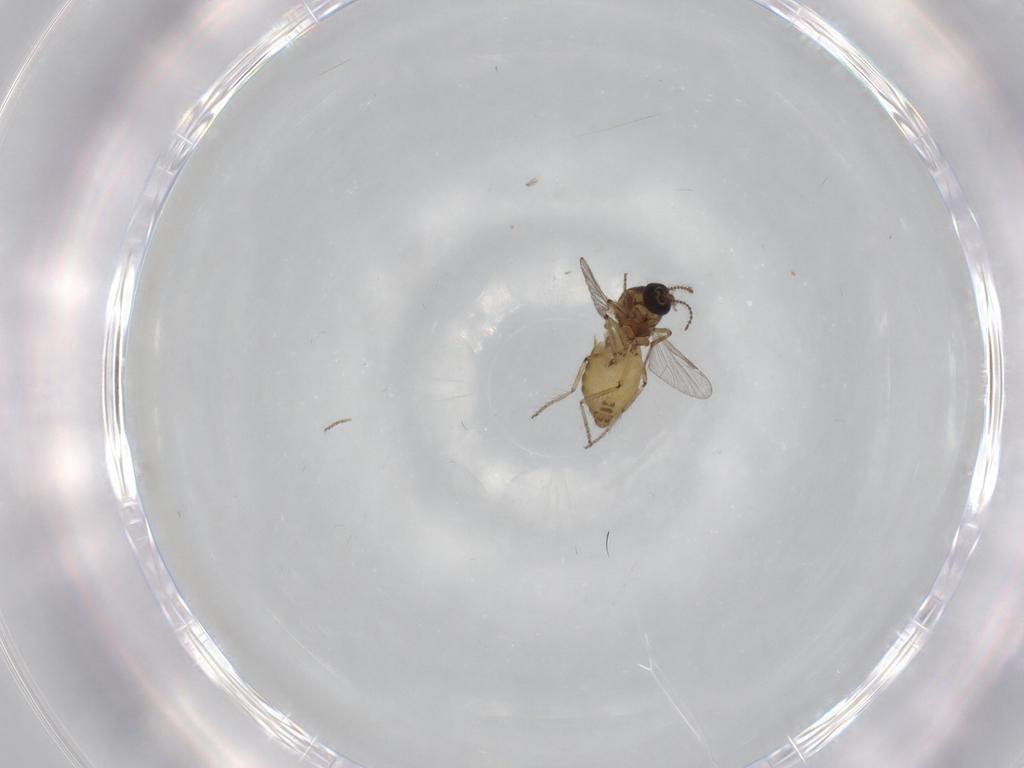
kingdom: Animalia
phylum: Arthropoda
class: Insecta
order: Diptera
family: Ceratopogonidae
